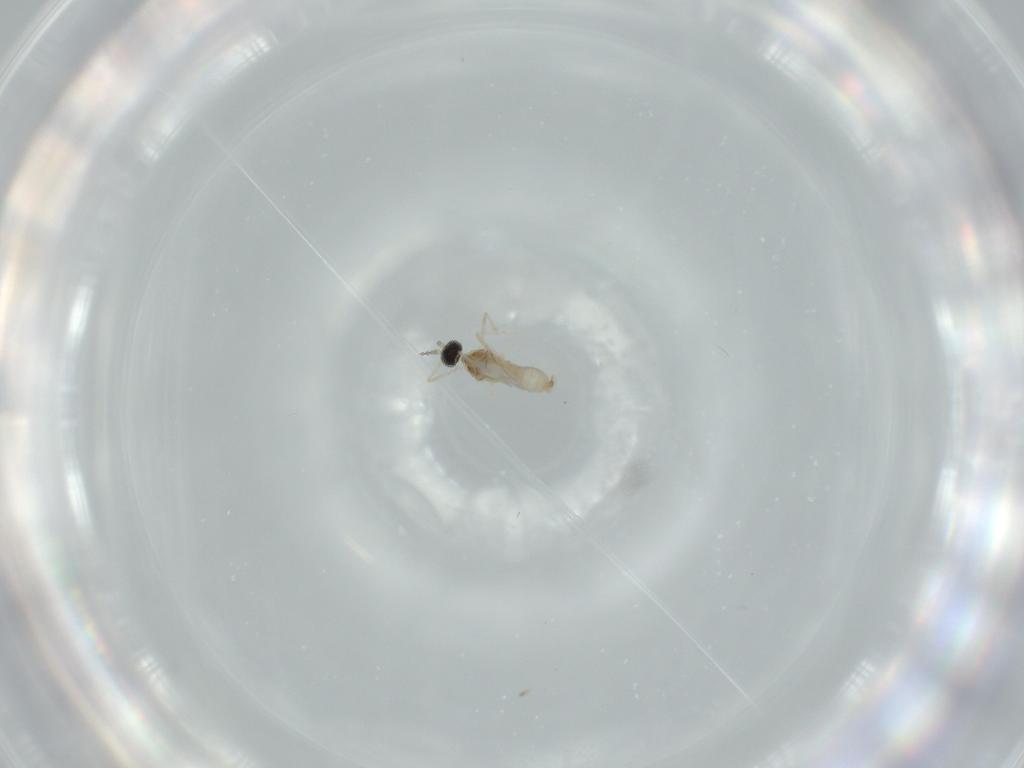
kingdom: Animalia
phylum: Arthropoda
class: Insecta
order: Diptera
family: Cecidomyiidae
